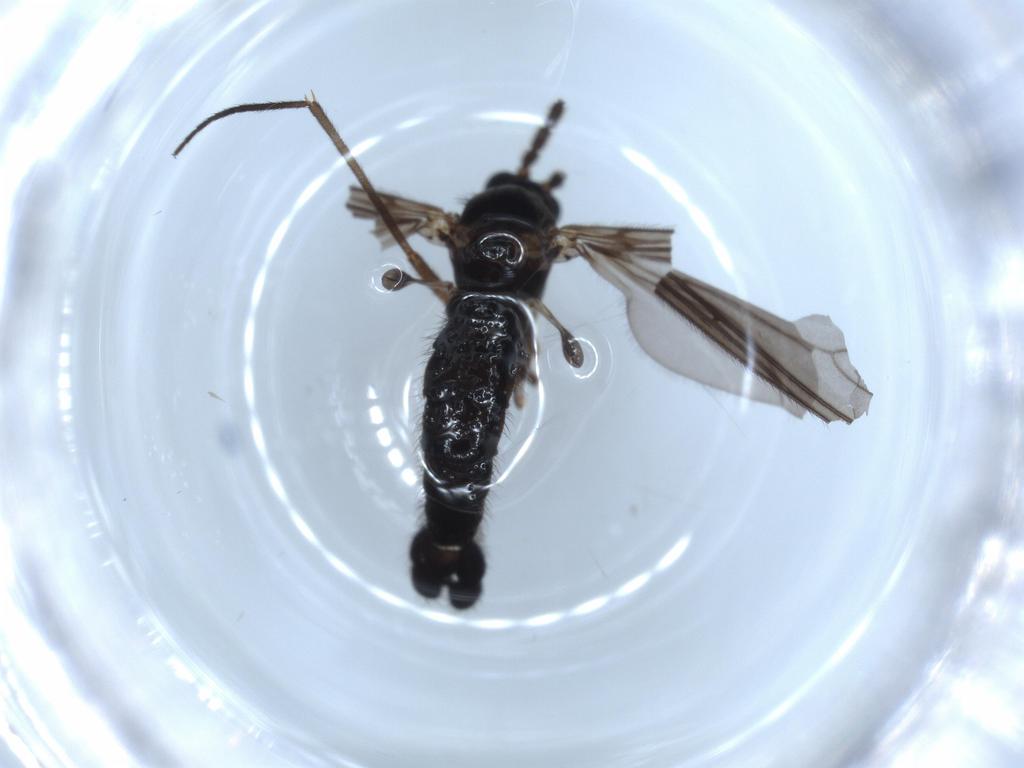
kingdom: Animalia
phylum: Arthropoda
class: Insecta
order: Diptera
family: Sciaridae
